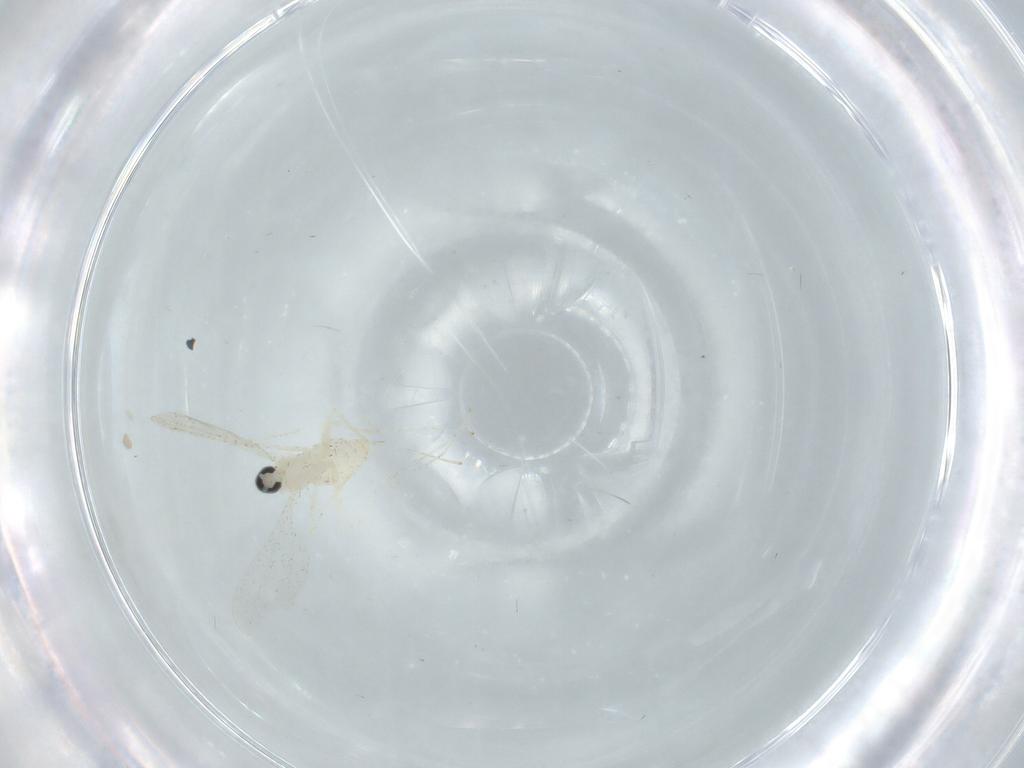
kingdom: Animalia
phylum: Arthropoda
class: Insecta
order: Diptera
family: Cecidomyiidae
